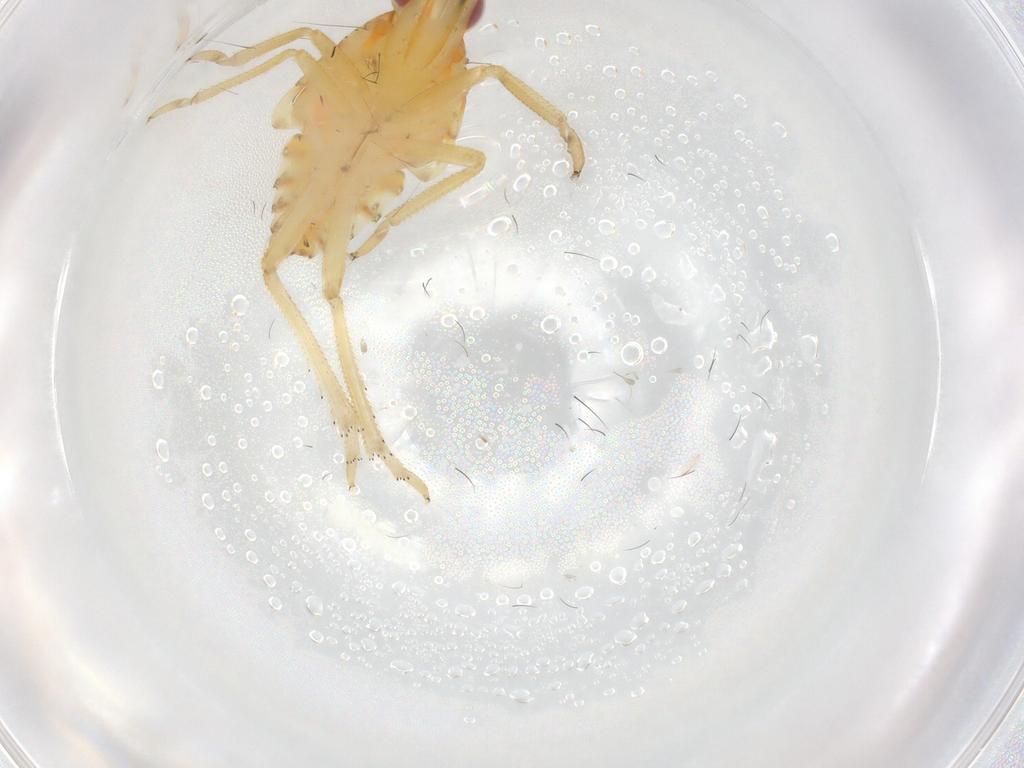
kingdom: Animalia
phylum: Arthropoda
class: Insecta
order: Hemiptera
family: Tropiduchidae
